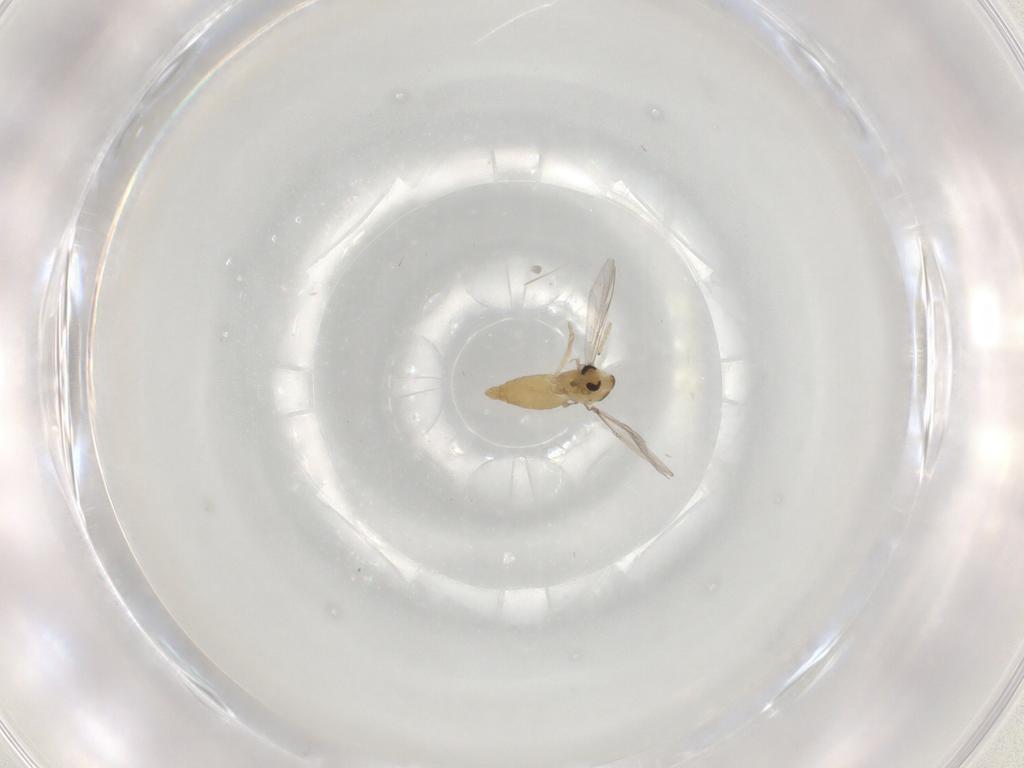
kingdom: Animalia
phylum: Arthropoda
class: Insecta
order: Diptera
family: Chironomidae
